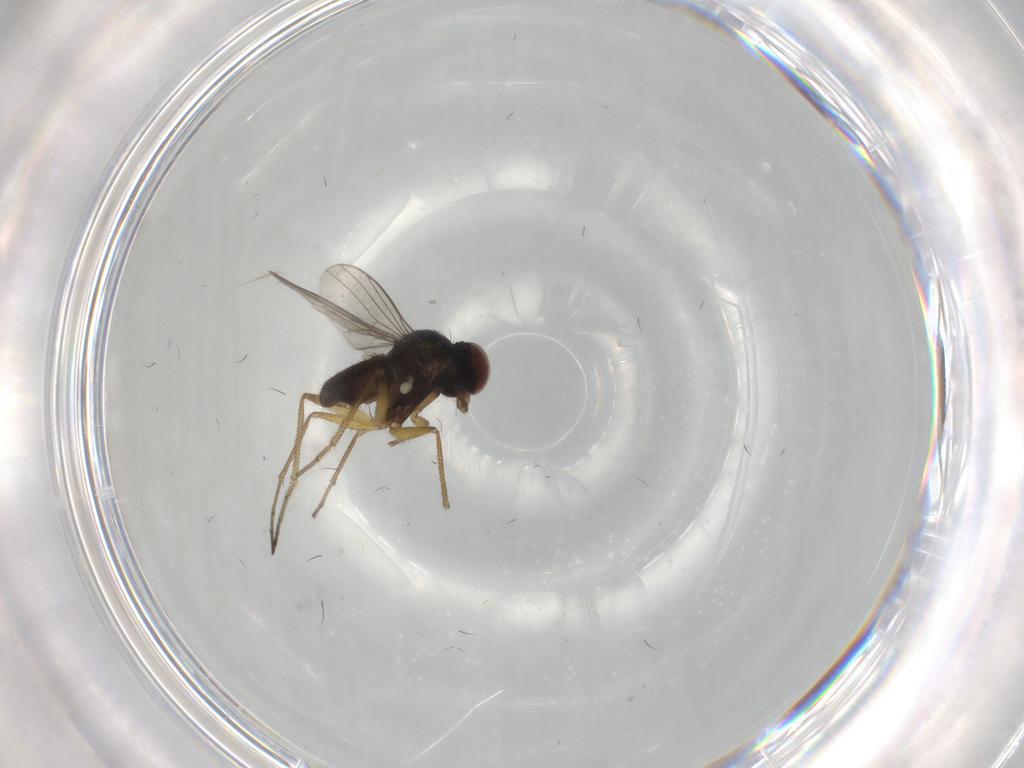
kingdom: Animalia
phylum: Arthropoda
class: Insecta
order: Diptera
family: Dolichopodidae
